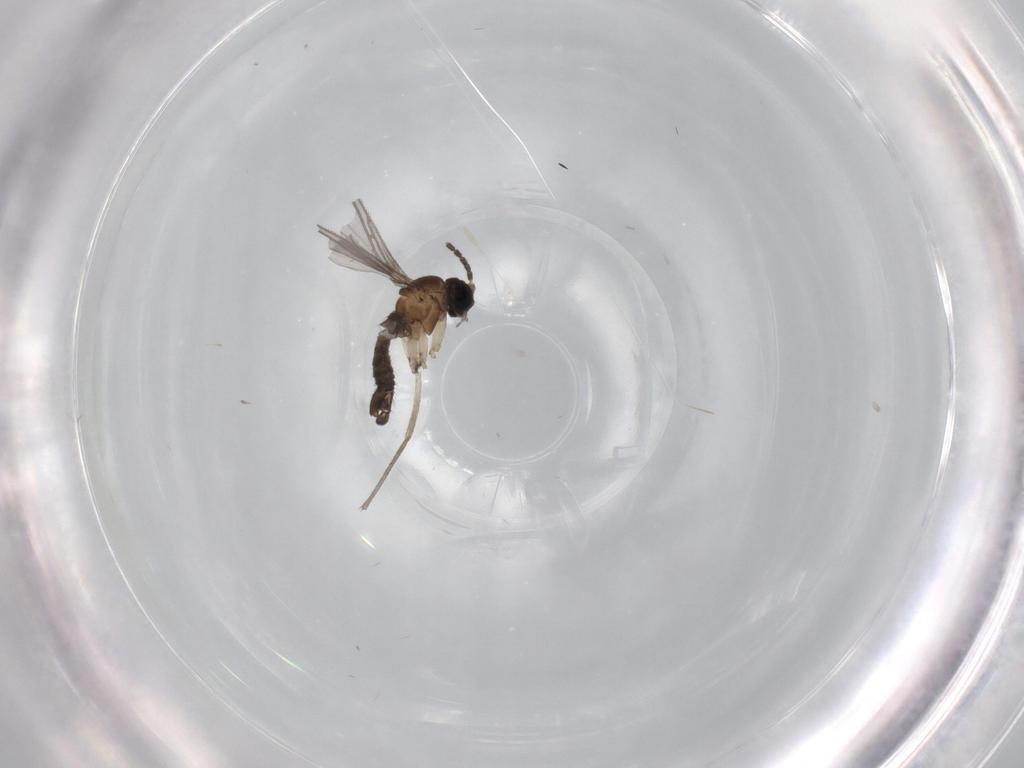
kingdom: Animalia
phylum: Arthropoda
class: Insecta
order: Diptera
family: Sciaridae
